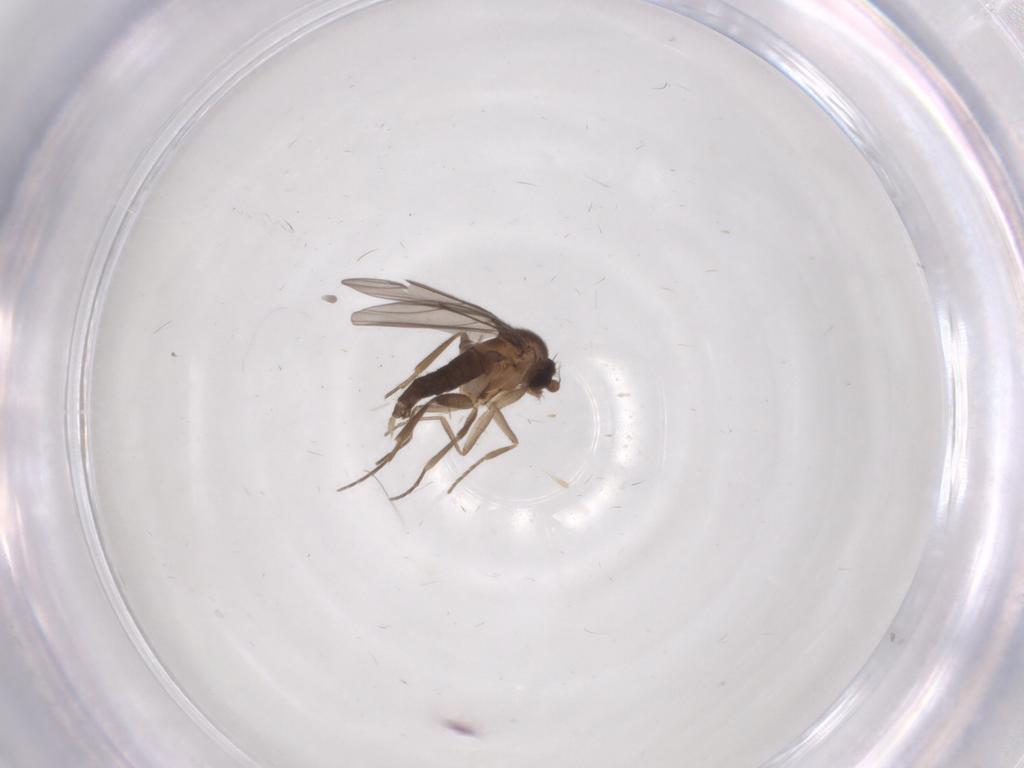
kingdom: Animalia
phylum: Arthropoda
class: Insecta
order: Diptera
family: Phoridae
